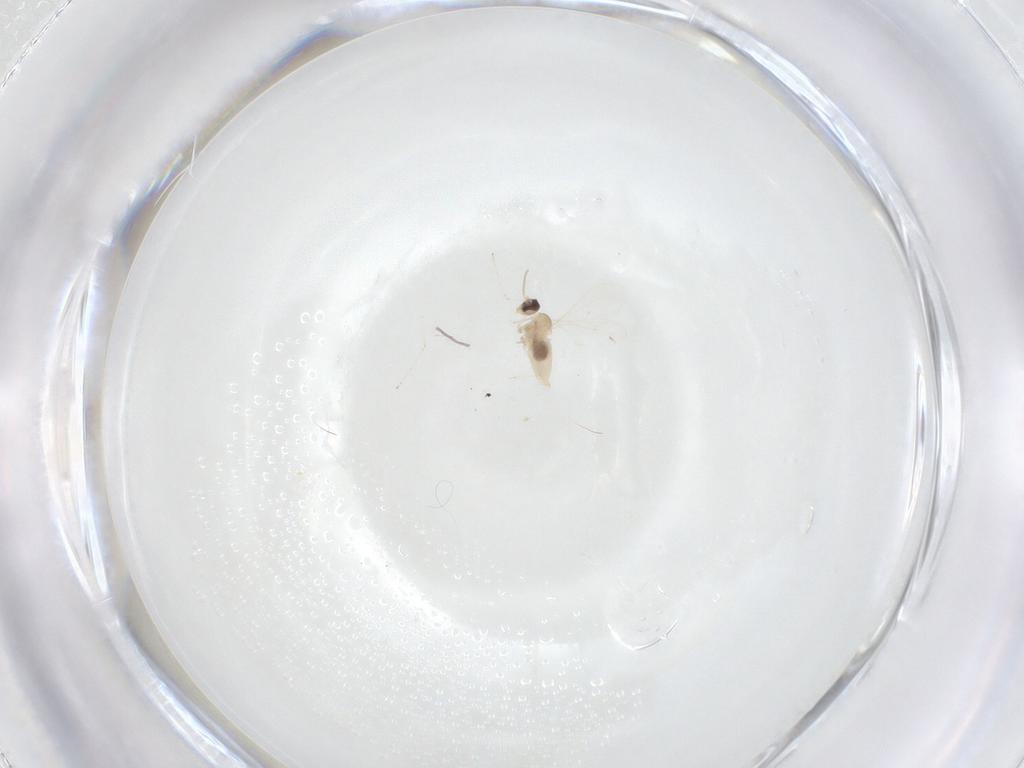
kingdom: Animalia
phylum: Arthropoda
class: Insecta
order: Diptera
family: Cecidomyiidae
